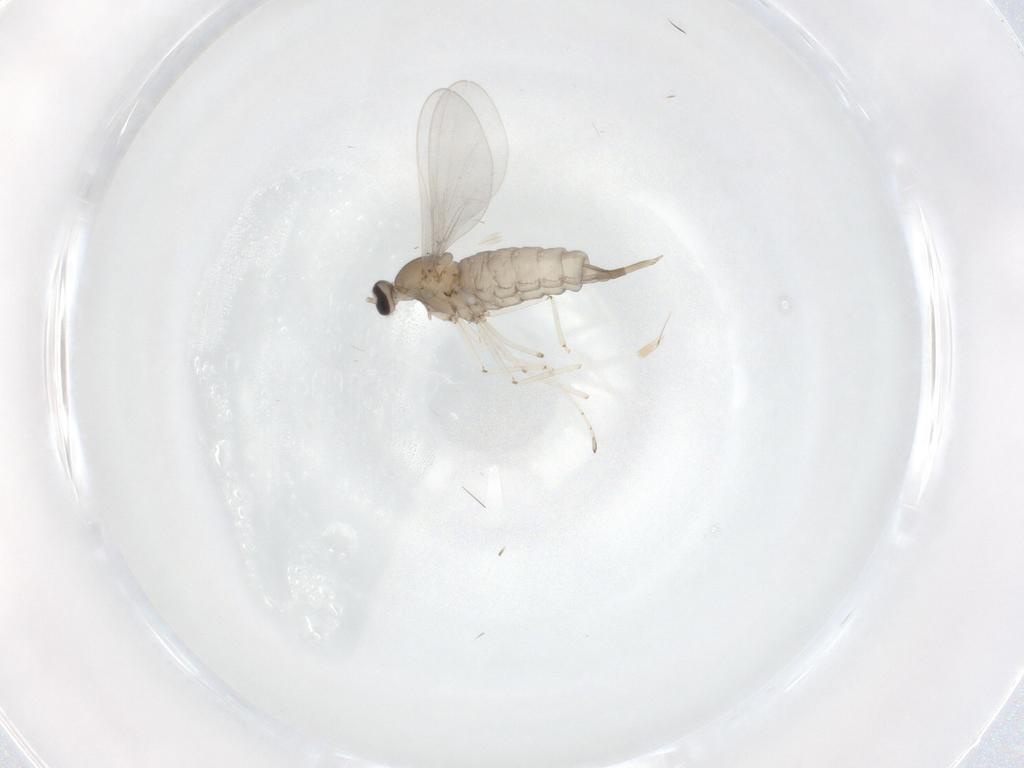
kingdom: Animalia
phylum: Arthropoda
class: Insecta
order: Diptera
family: Cecidomyiidae
